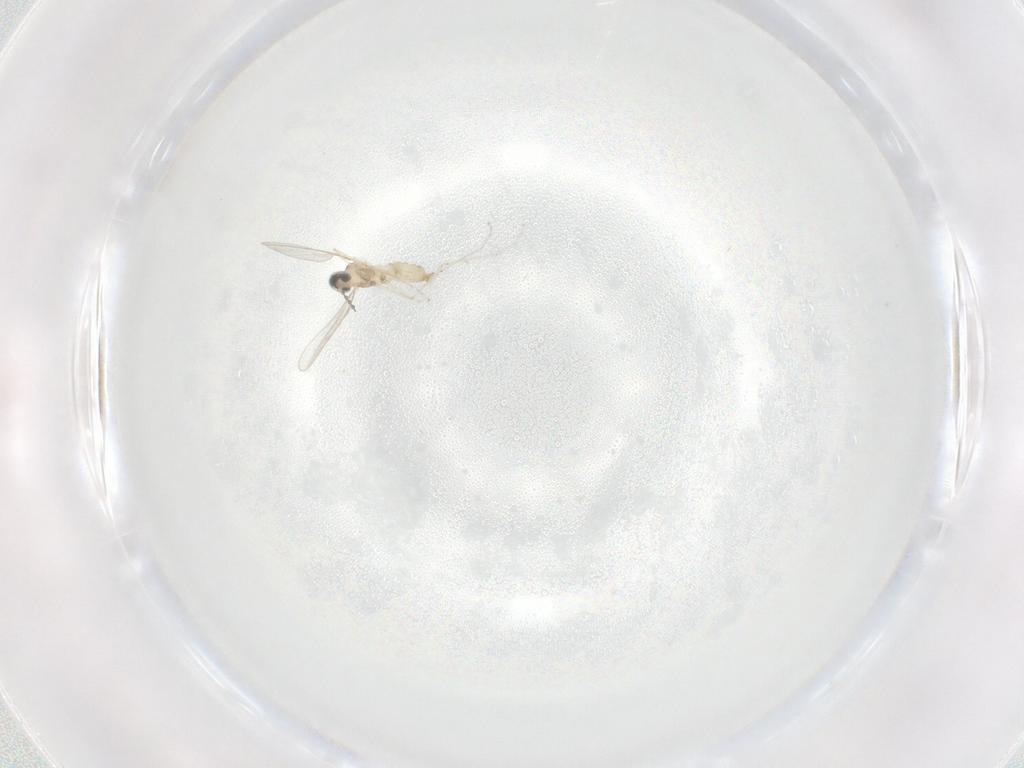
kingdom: Animalia
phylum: Arthropoda
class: Insecta
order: Diptera
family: Cecidomyiidae
